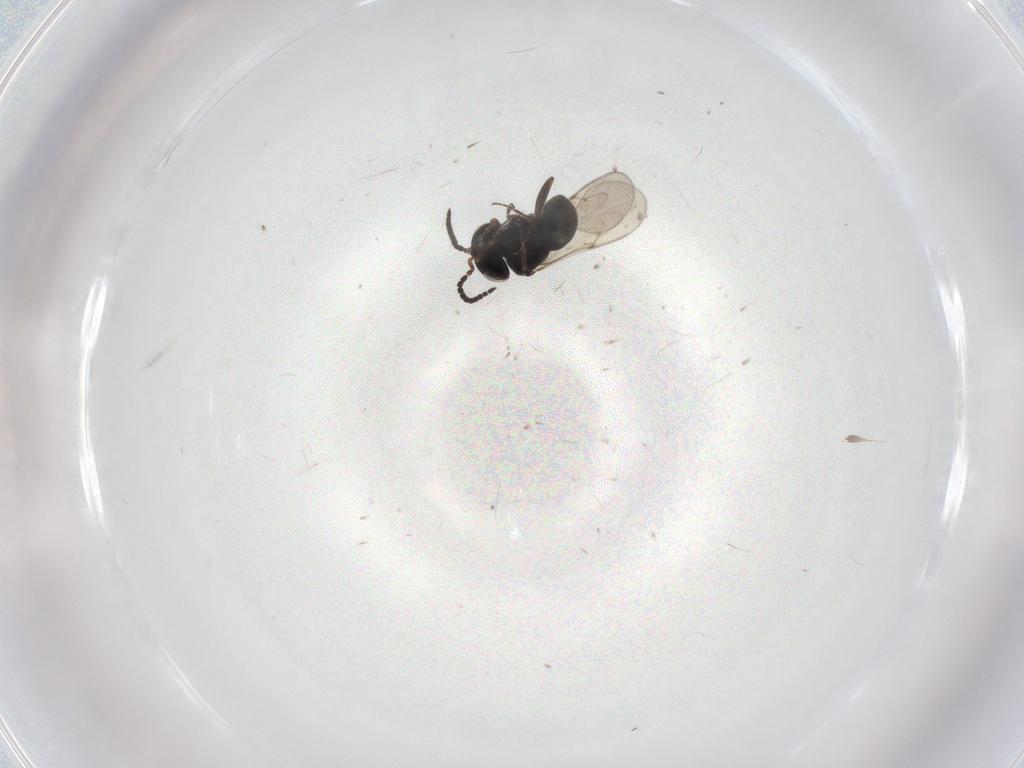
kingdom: Animalia
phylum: Arthropoda
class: Insecta
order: Hymenoptera
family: Scelionidae
